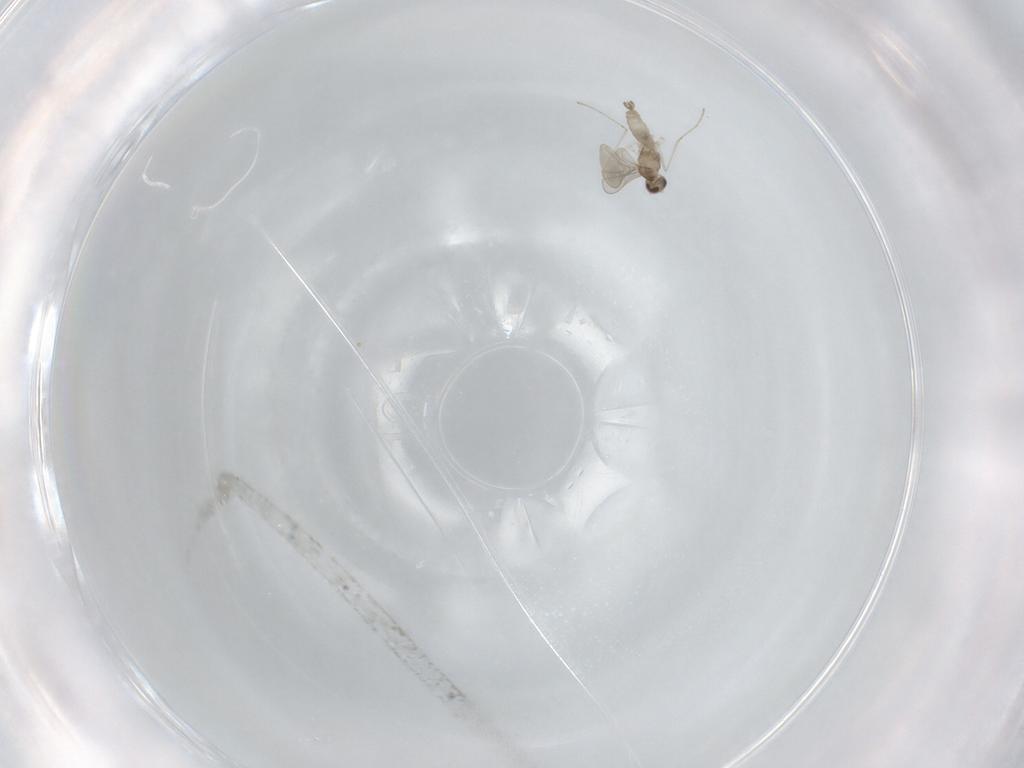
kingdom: Animalia
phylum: Arthropoda
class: Insecta
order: Diptera
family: Cecidomyiidae
